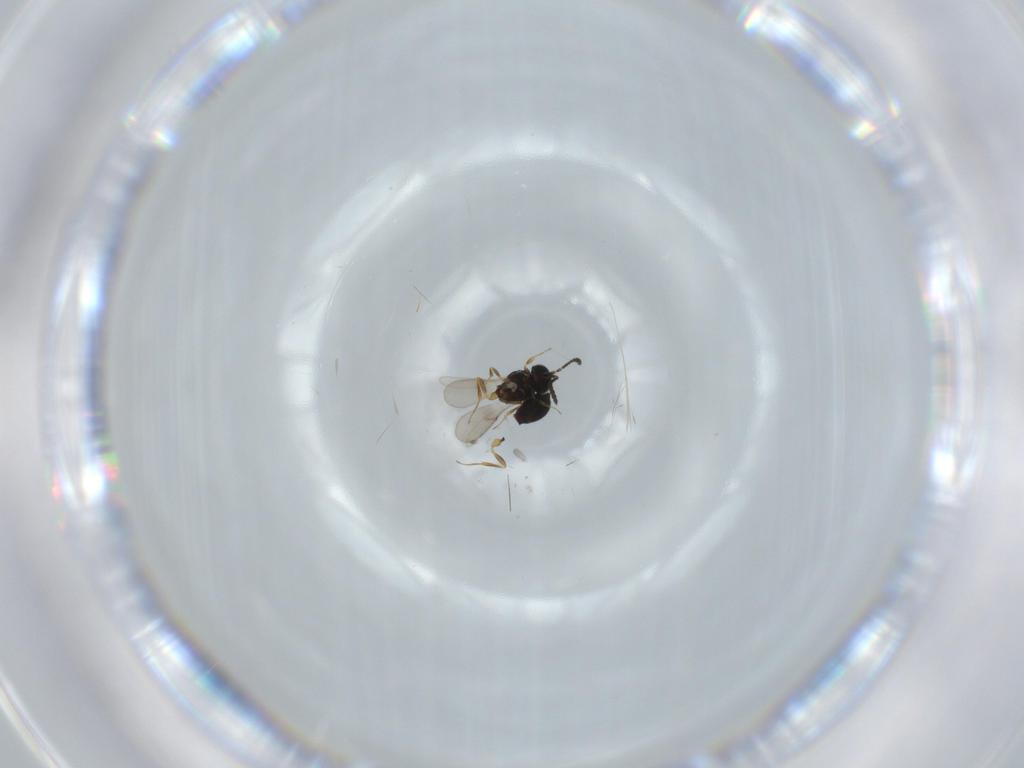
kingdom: Animalia
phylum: Arthropoda
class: Insecta
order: Hymenoptera
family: Scelionidae
